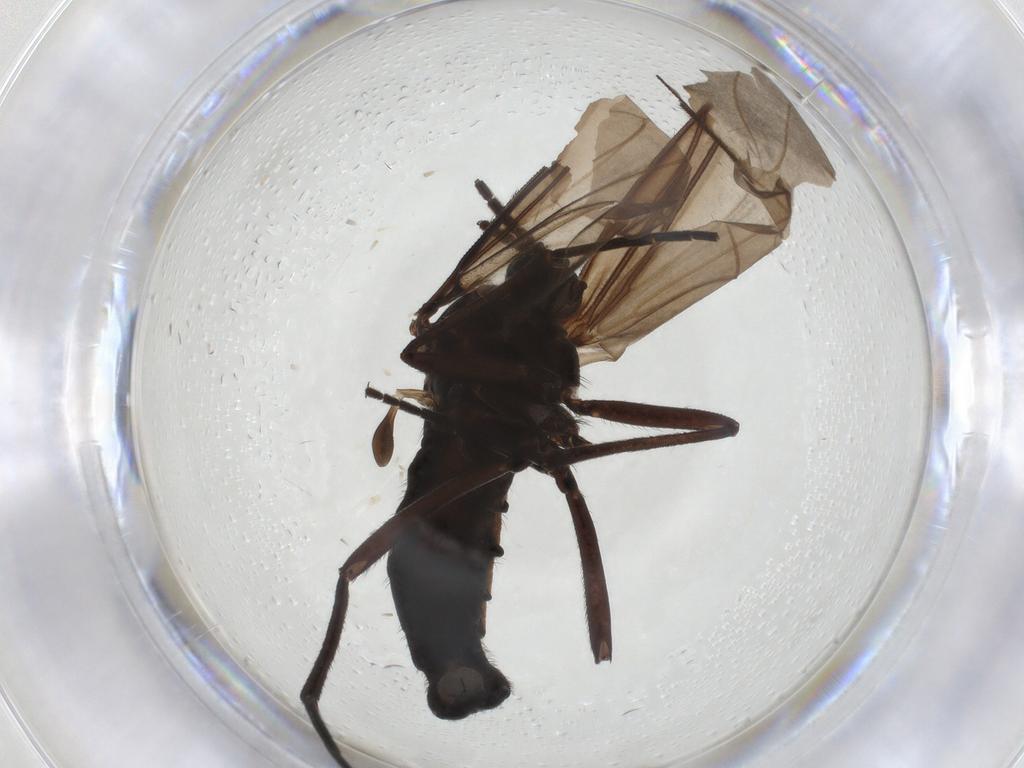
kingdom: Animalia
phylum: Arthropoda
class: Insecta
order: Diptera
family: Sciaridae
